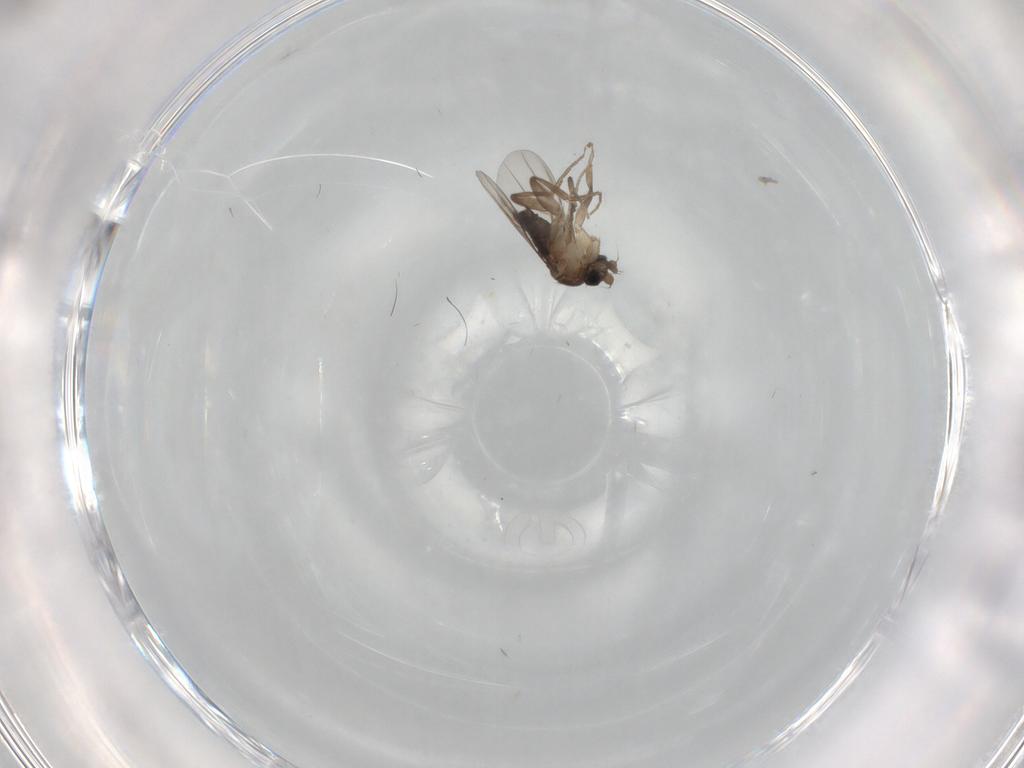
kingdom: Animalia
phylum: Arthropoda
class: Insecta
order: Diptera
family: Phoridae
